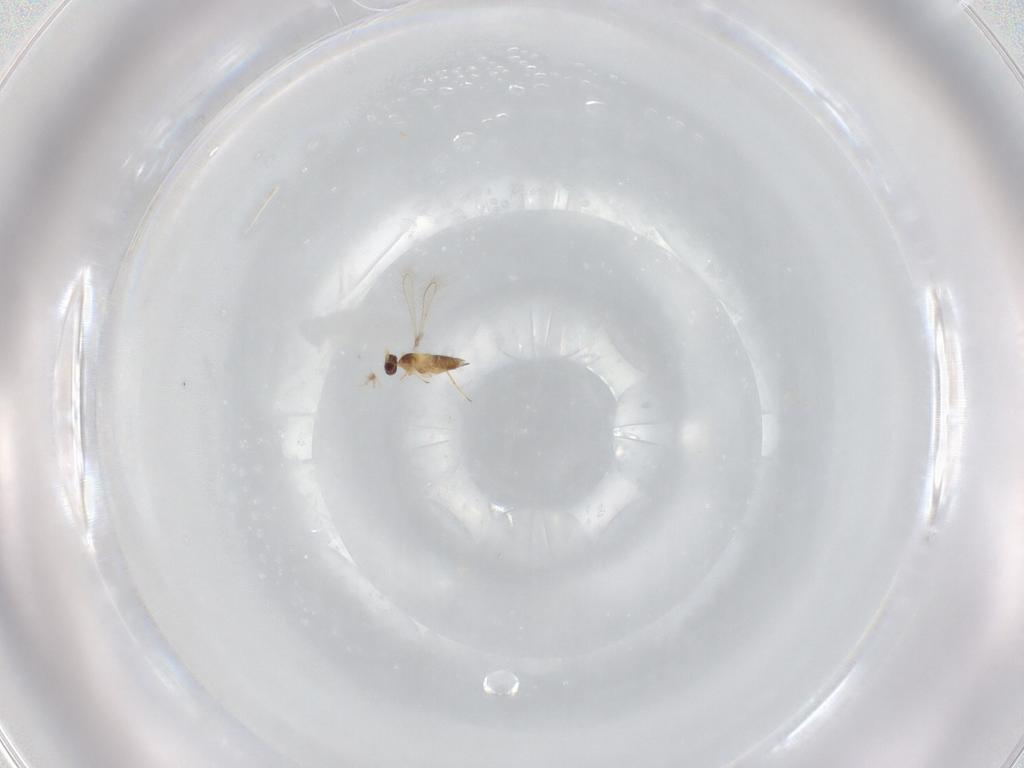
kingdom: Animalia
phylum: Arthropoda
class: Insecta
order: Hymenoptera
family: Mymaridae
